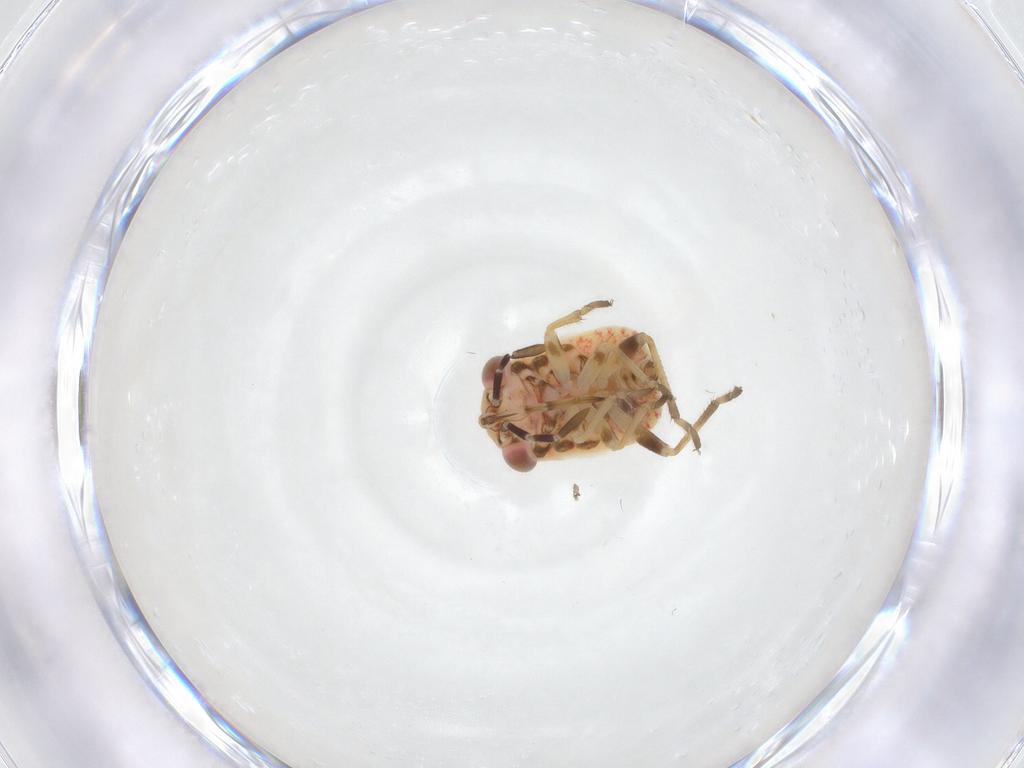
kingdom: Animalia
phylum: Arthropoda
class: Insecta
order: Hemiptera
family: Geocoridae
